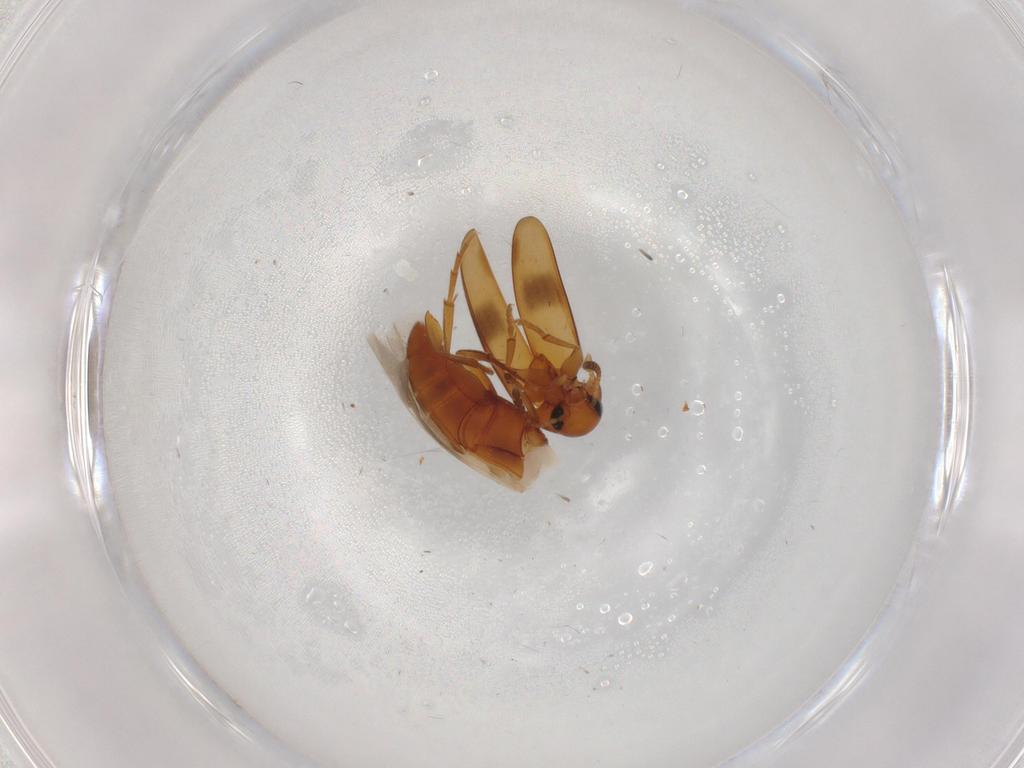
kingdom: Animalia
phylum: Arthropoda
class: Insecta
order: Coleoptera
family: Scraptiidae
